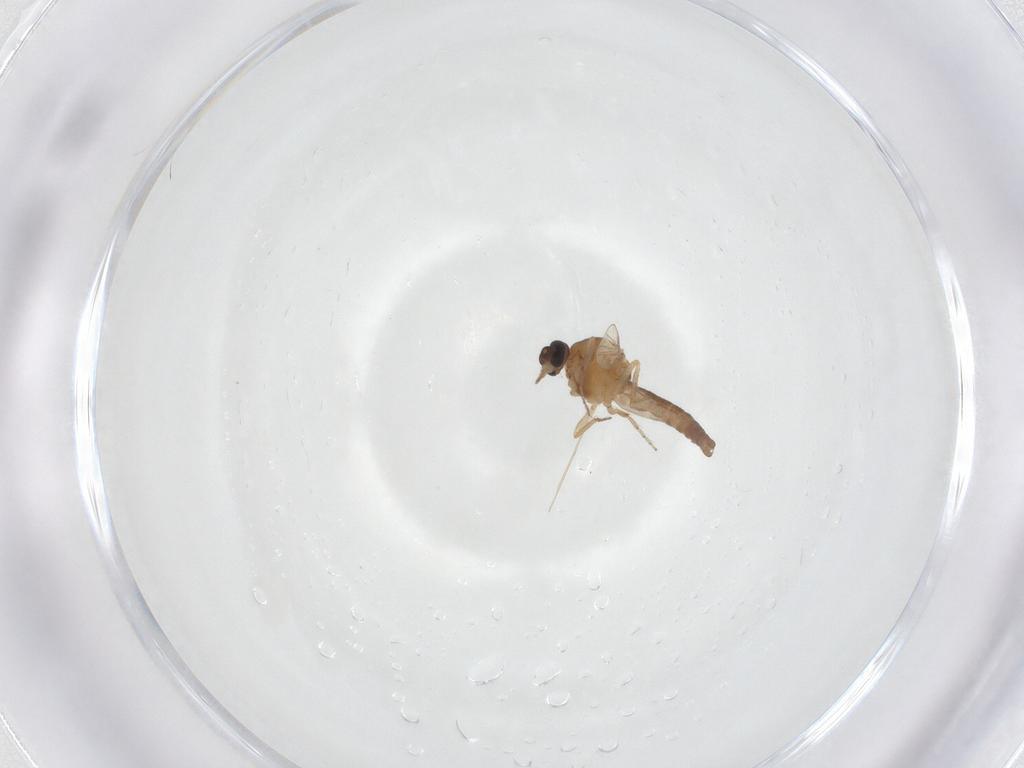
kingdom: Animalia
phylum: Arthropoda
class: Insecta
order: Diptera
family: Ceratopogonidae
